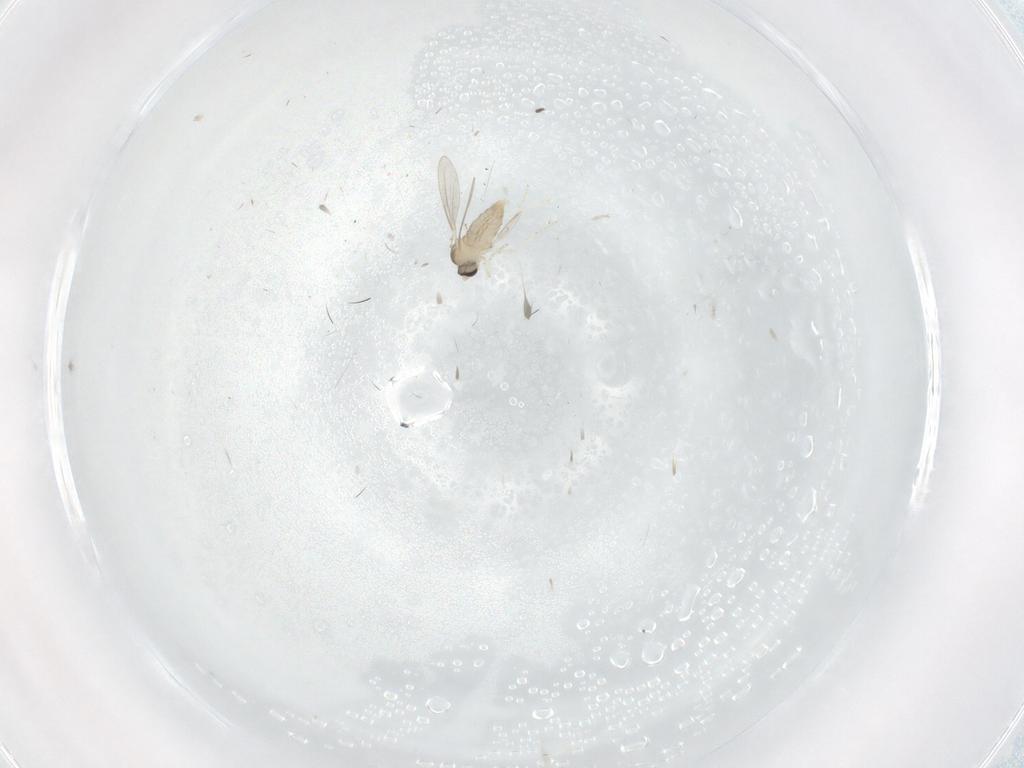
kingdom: Animalia
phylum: Arthropoda
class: Insecta
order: Diptera
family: Cecidomyiidae
